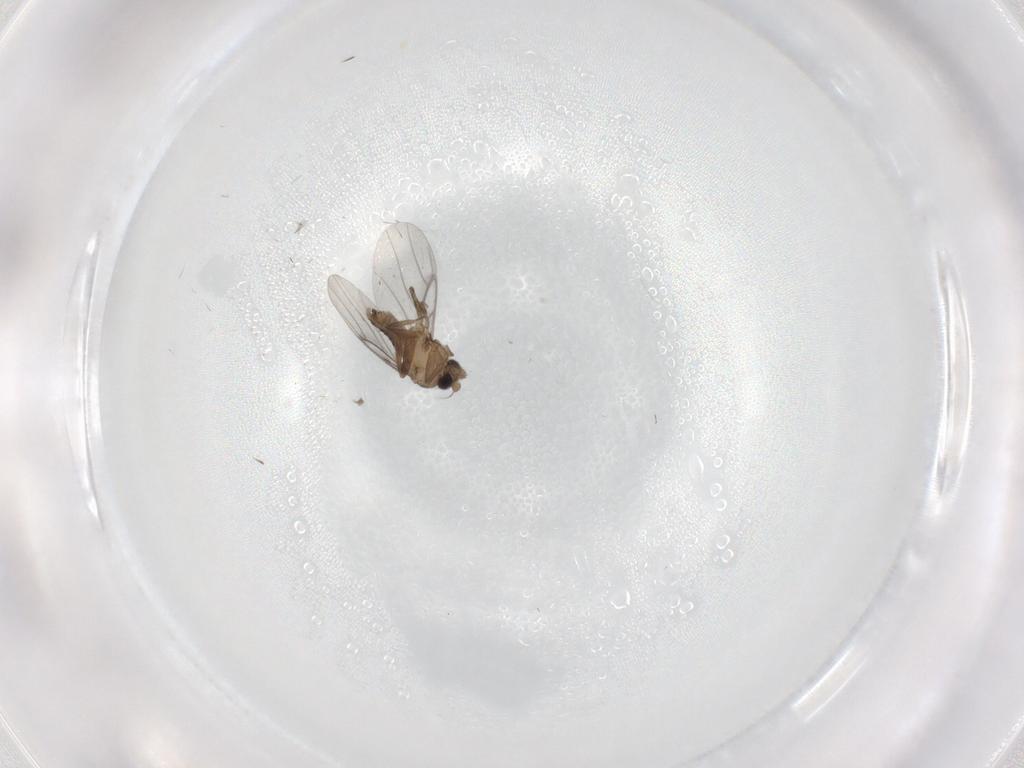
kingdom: Animalia
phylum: Arthropoda
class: Insecta
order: Diptera
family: Tipulidae
